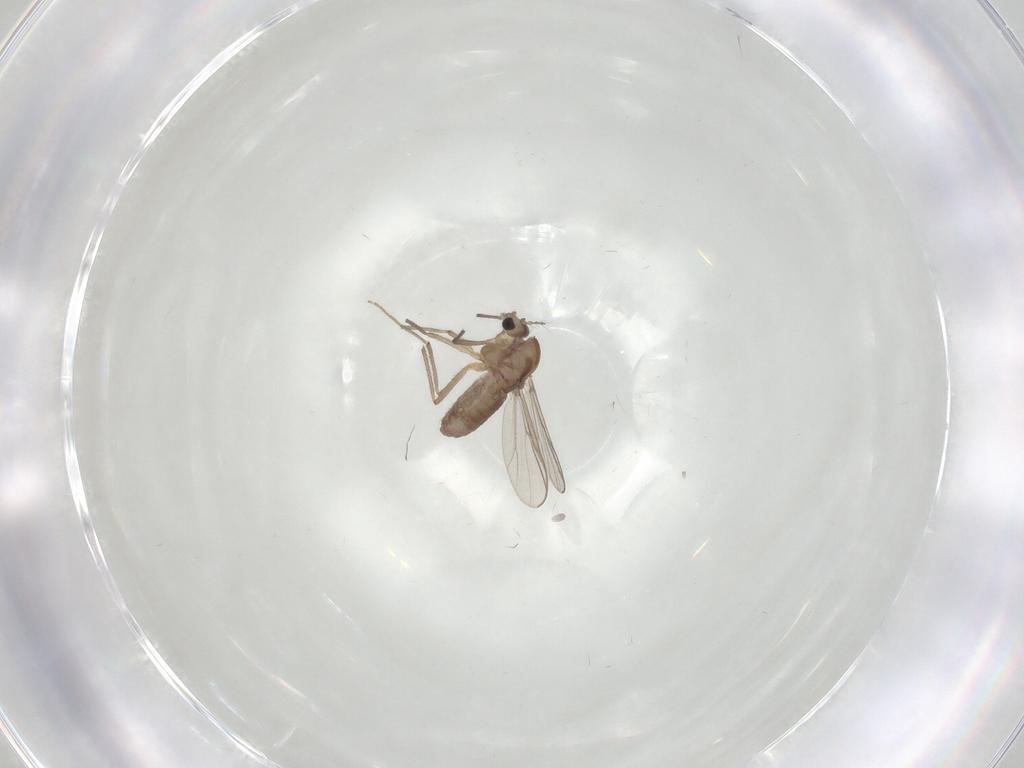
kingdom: Animalia
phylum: Arthropoda
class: Insecta
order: Diptera
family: Chironomidae
